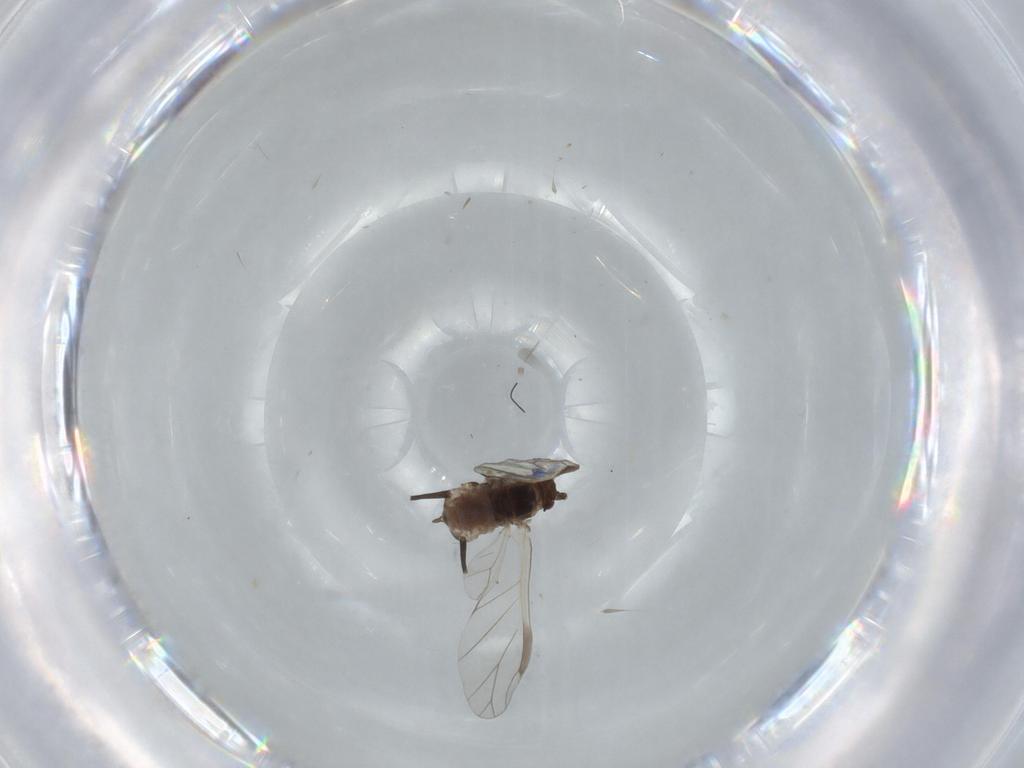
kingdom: Animalia
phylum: Arthropoda
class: Insecta
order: Hemiptera
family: Aphididae
